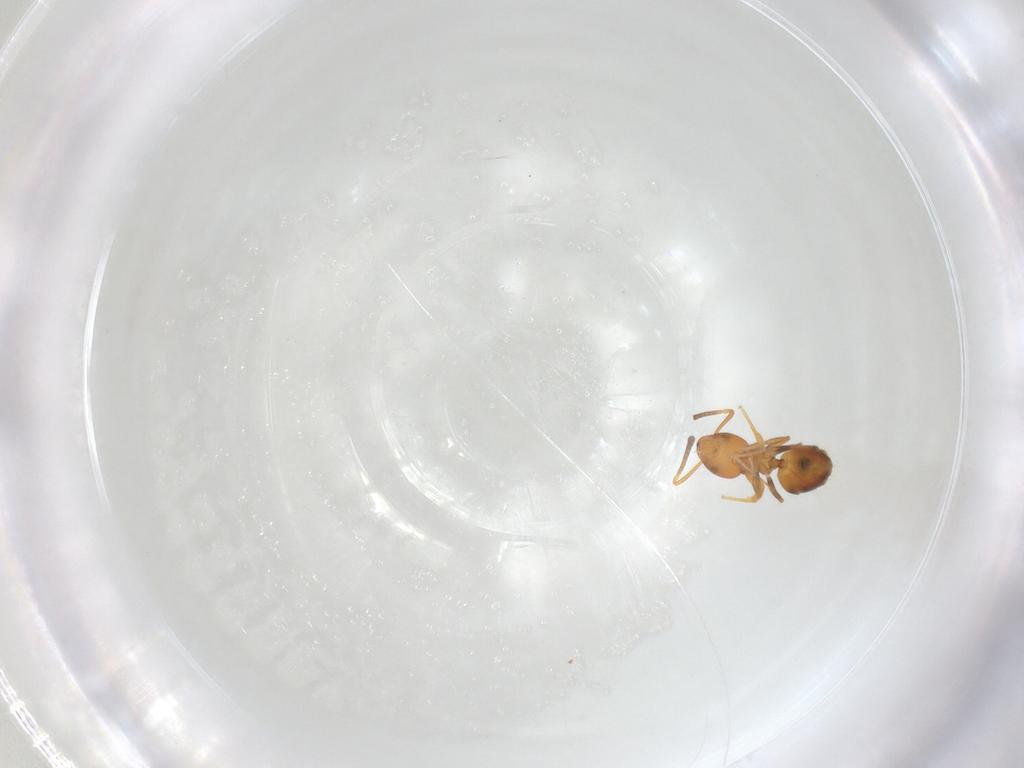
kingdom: Animalia
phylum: Arthropoda
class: Insecta
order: Hymenoptera
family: Formicidae
